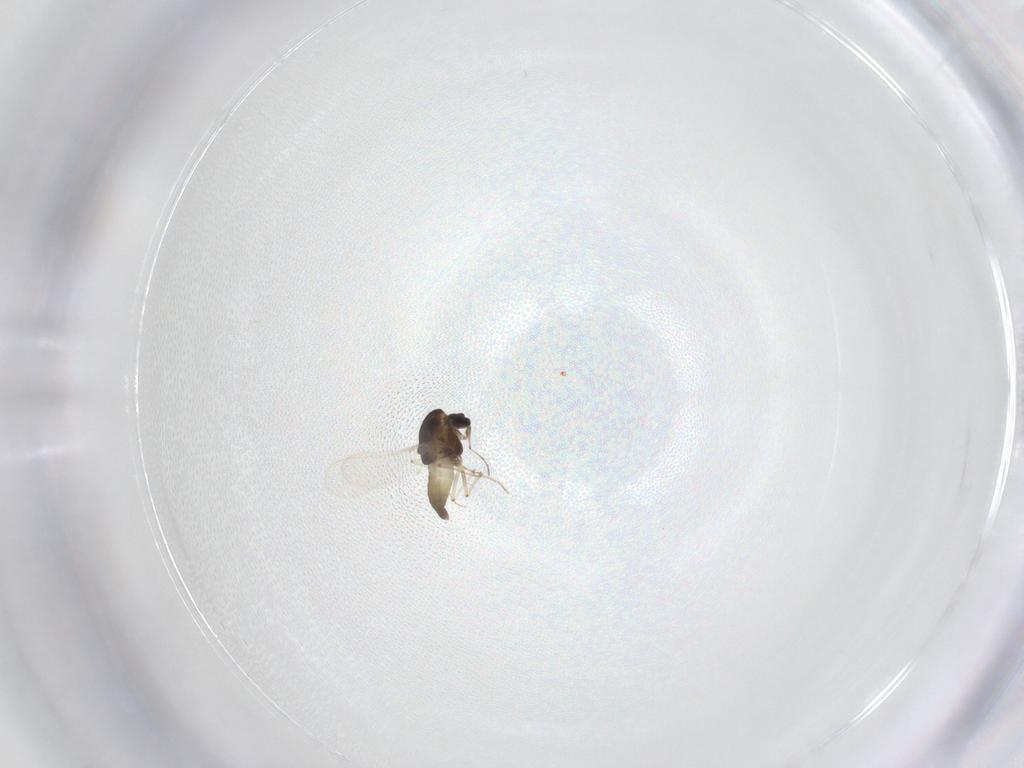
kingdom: Animalia
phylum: Arthropoda
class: Insecta
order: Diptera
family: Chironomidae
